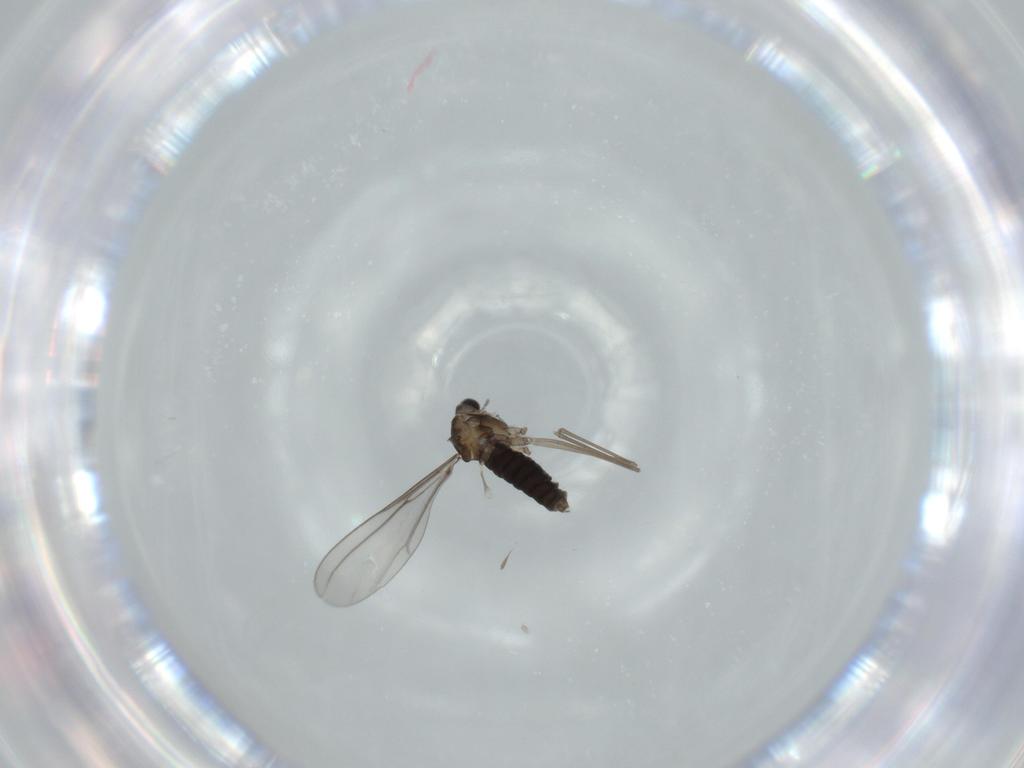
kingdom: Animalia
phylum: Arthropoda
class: Insecta
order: Diptera
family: Cecidomyiidae
